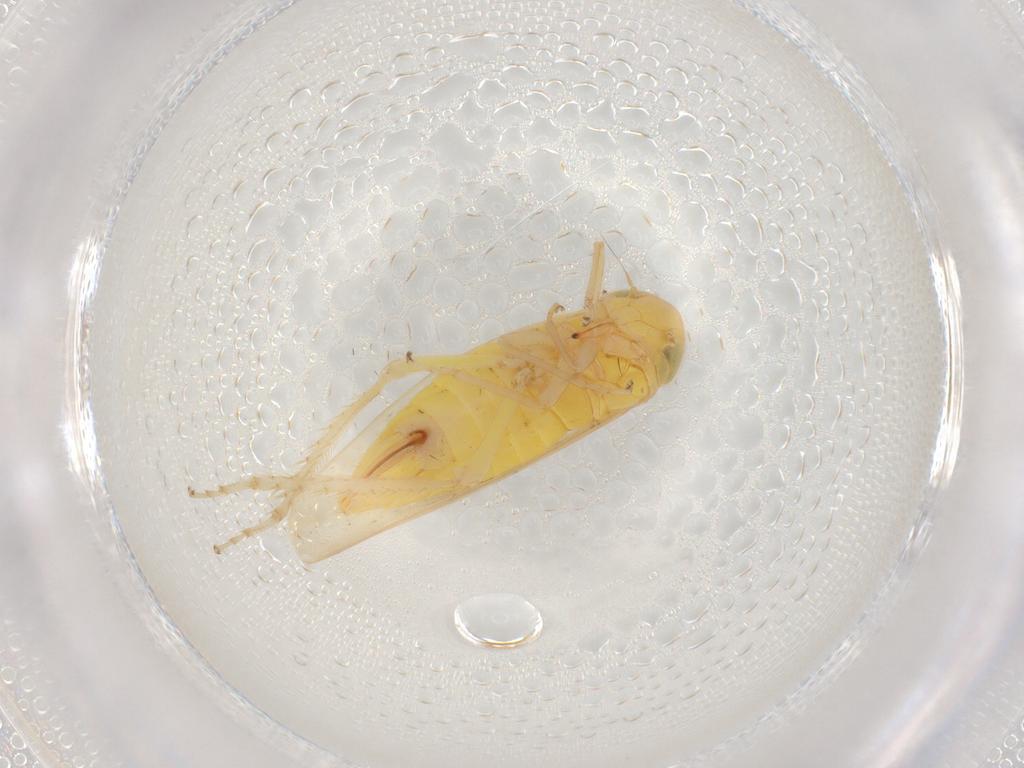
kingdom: Animalia
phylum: Arthropoda
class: Insecta
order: Hemiptera
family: Cicadellidae
